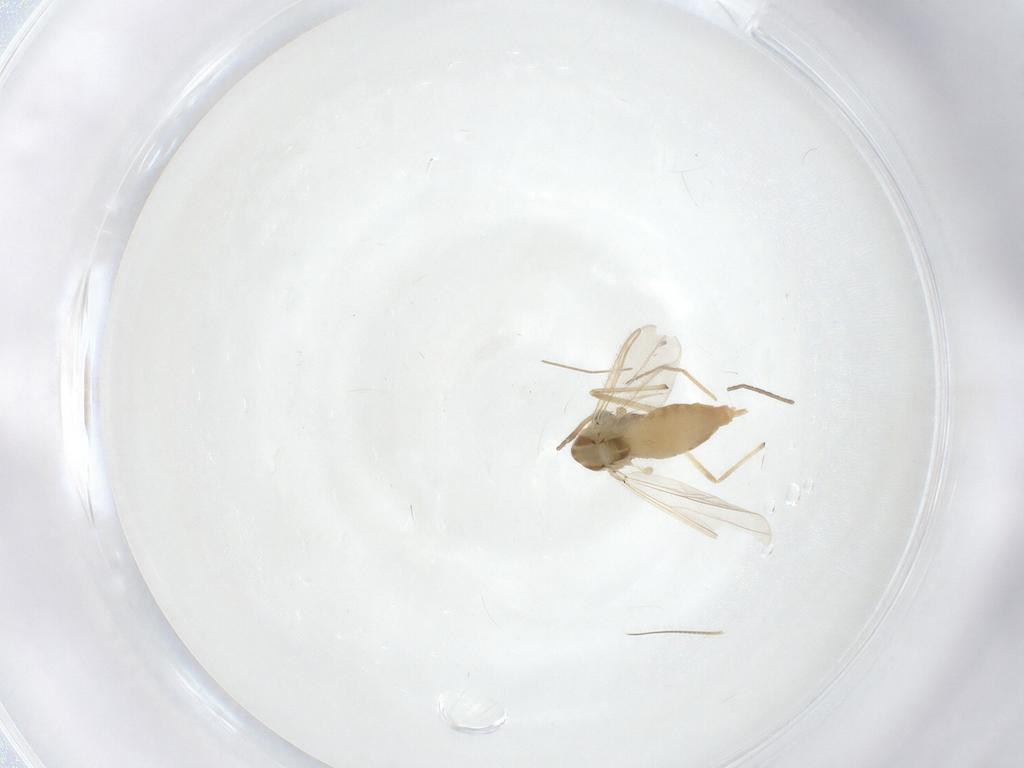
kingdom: Animalia
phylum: Arthropoda
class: Insecta
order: Diptera
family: Chironomidae
